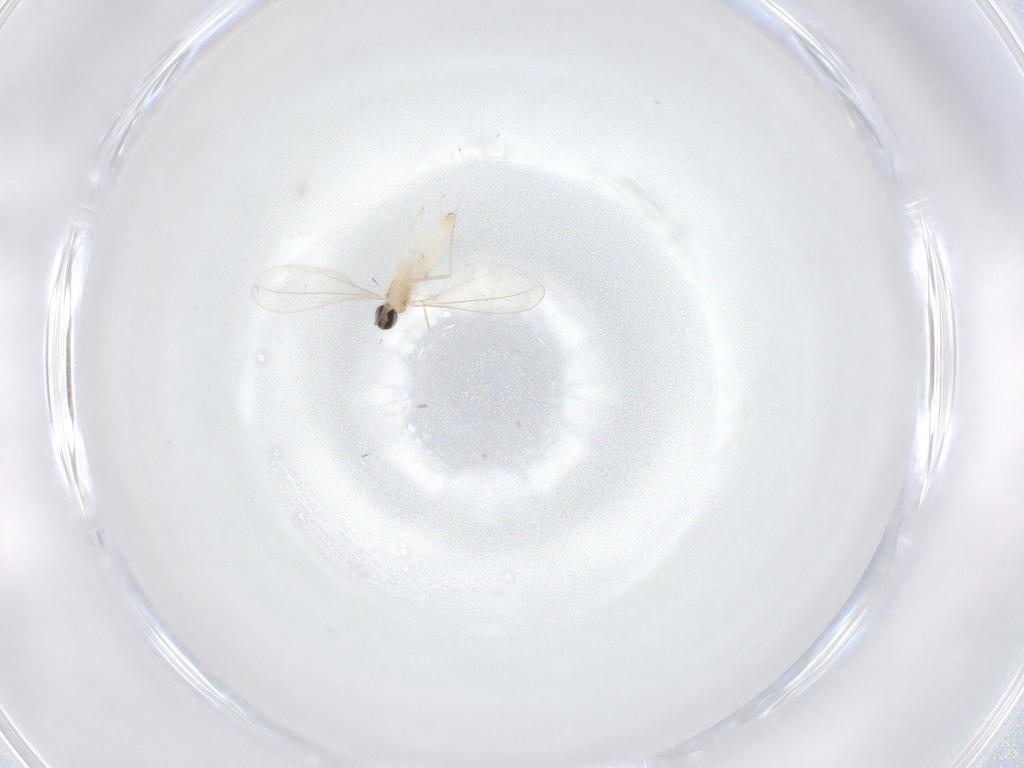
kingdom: Animalia
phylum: Arthropoda
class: Insecta
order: Diptera
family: Cecidomyiidae
